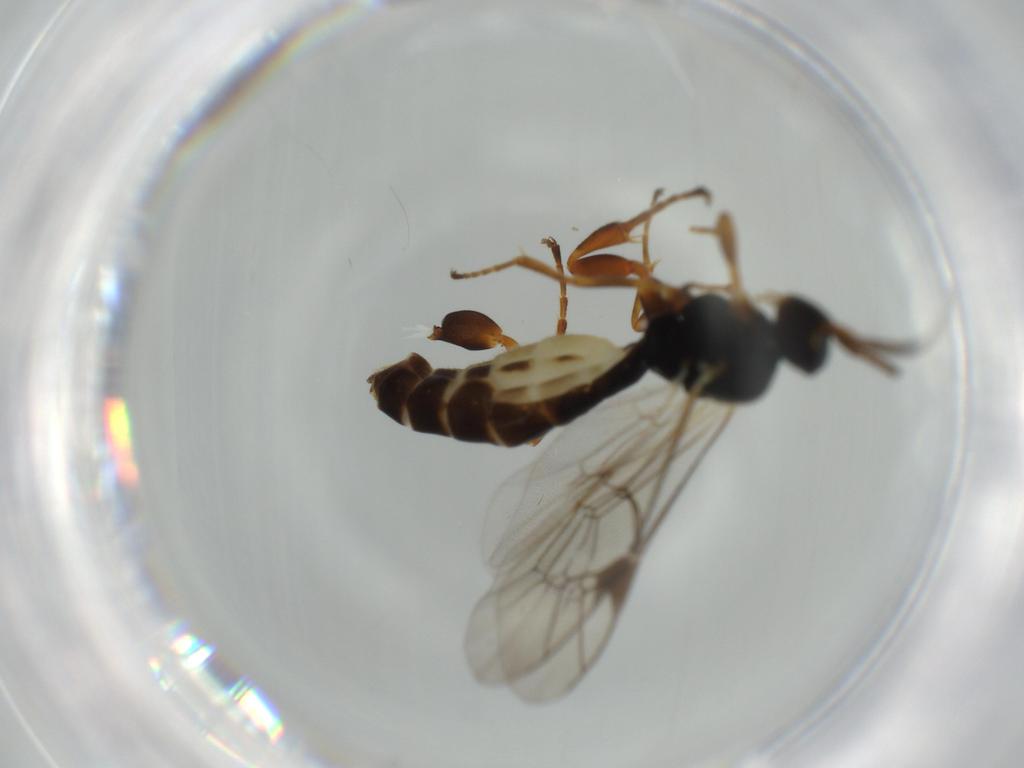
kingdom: Animalia
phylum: Arthropoda
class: Insecta
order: Hymenoptera
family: Ichneumonidae
